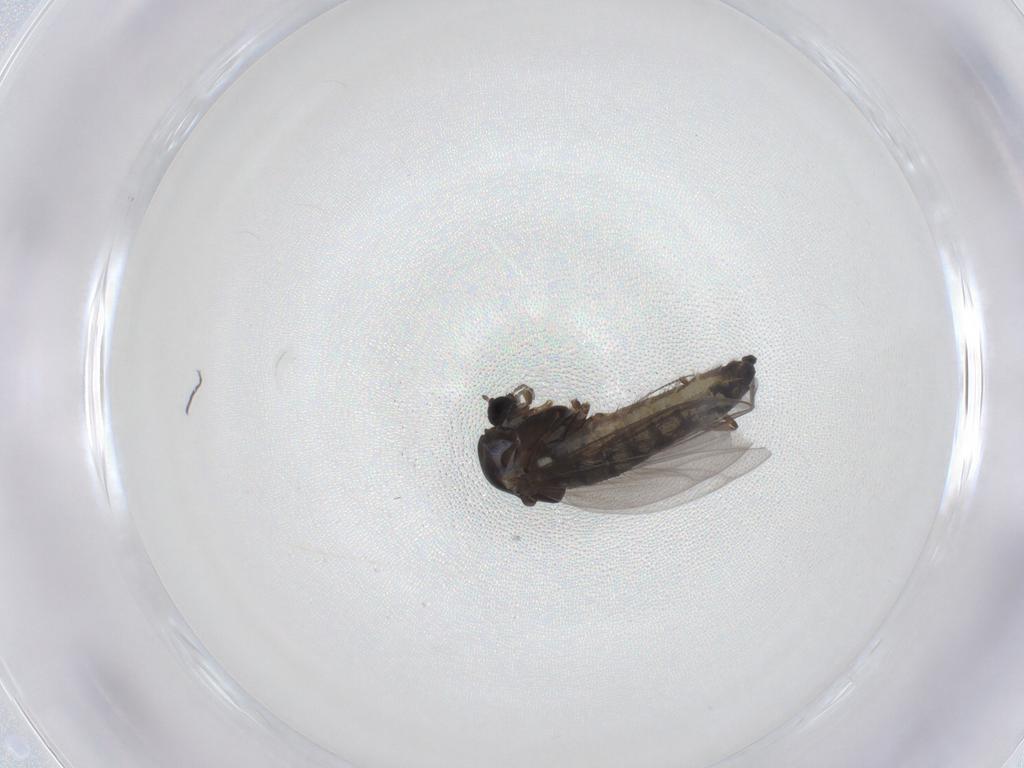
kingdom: Animalia
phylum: Arthropoda
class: Insecta
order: Diptera
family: Chironomidae
